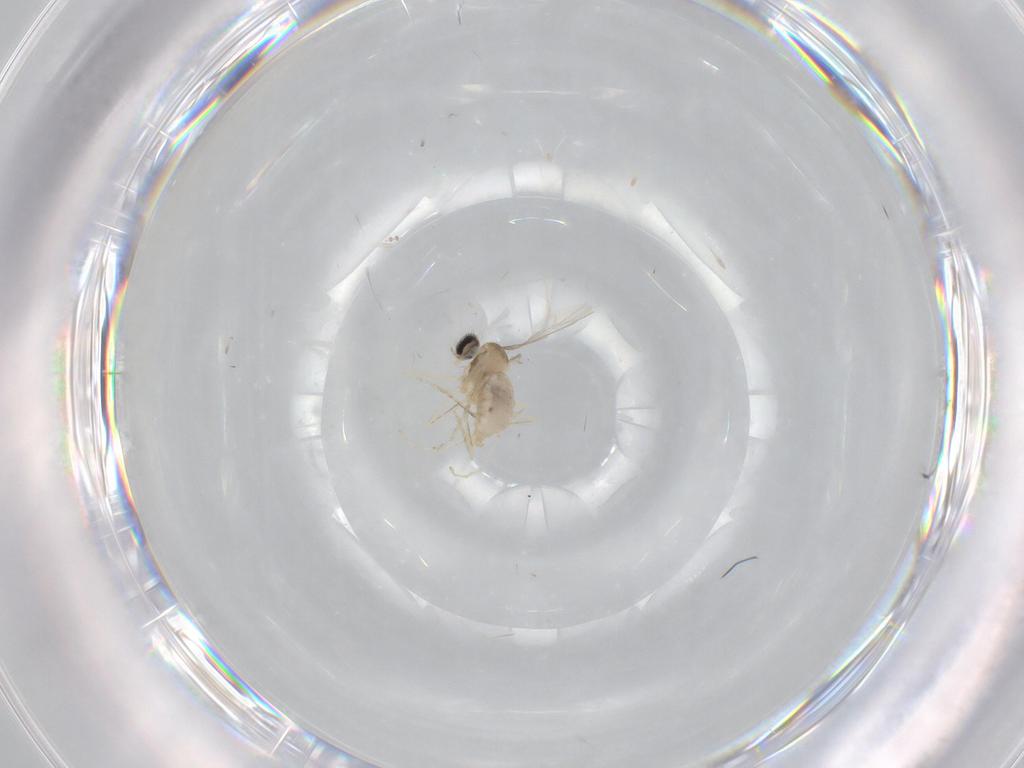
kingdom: Animalia
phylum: Arthropoda
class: Insecta
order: Diptera
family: Cecidomyiidae
